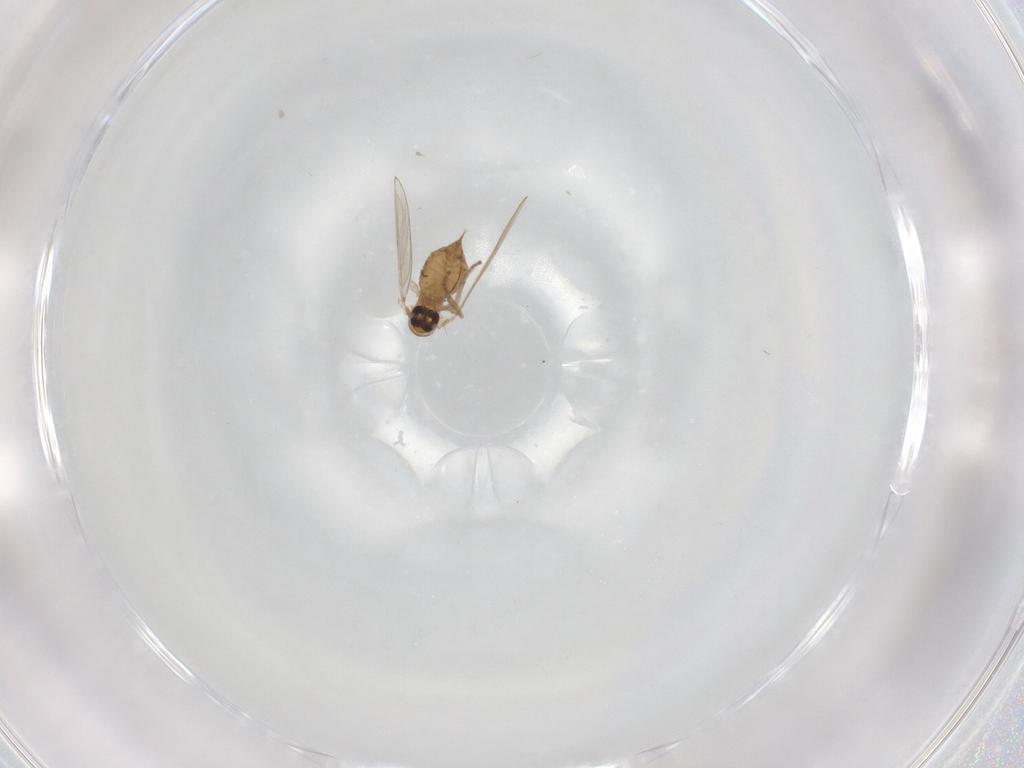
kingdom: Animalia
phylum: Arthropoda
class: Insecta
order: Diptera
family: Psychodidae
